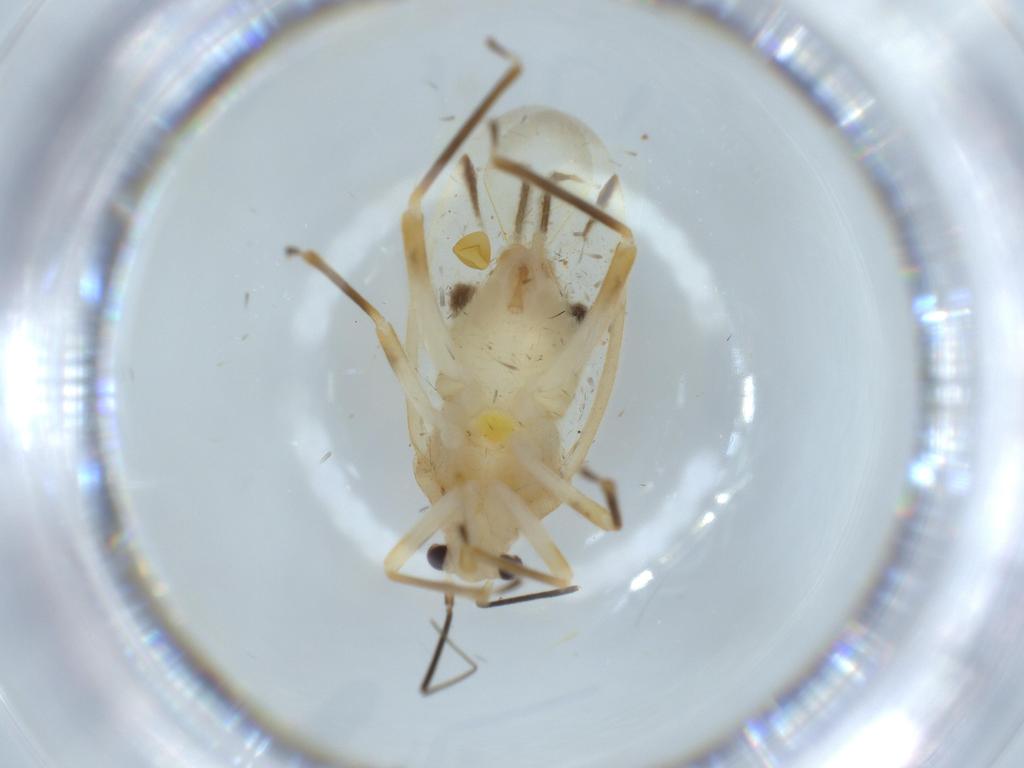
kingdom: Animalia
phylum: Arthropoda
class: Insecta
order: Hemiptera
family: Miridae
